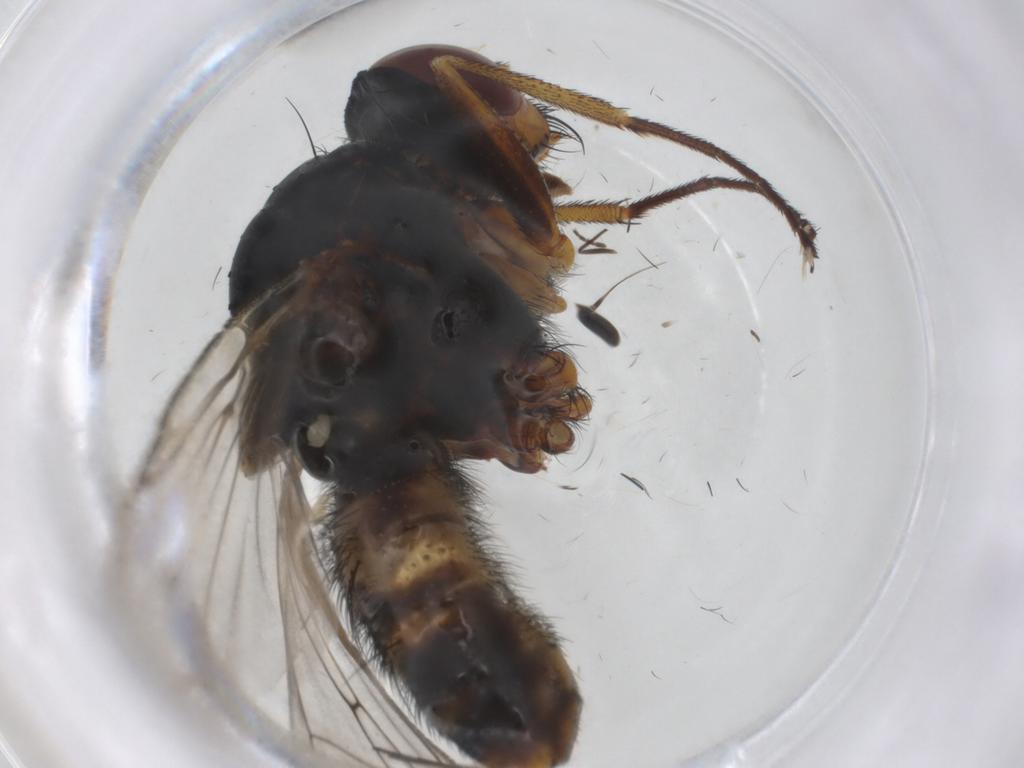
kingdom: Animalia
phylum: Arthropoda
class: Insecta
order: Diptera
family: Anthomyiidae
